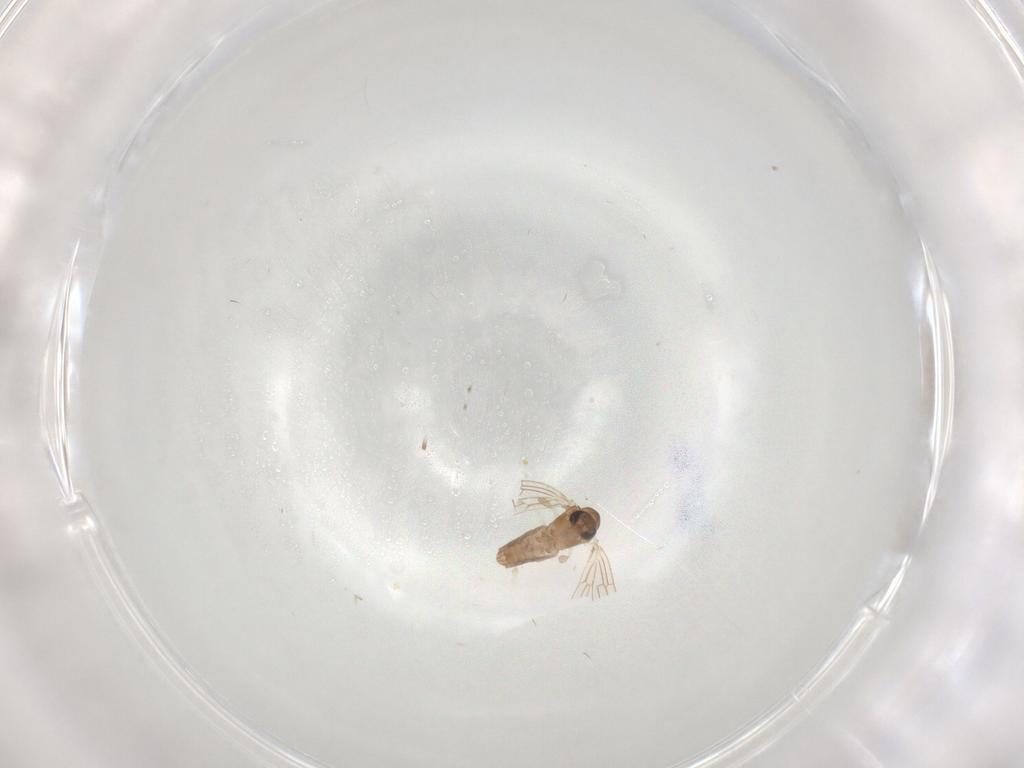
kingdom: Animalia
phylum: Arthropoda
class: Insecta
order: Diptera
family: Psychodidae
